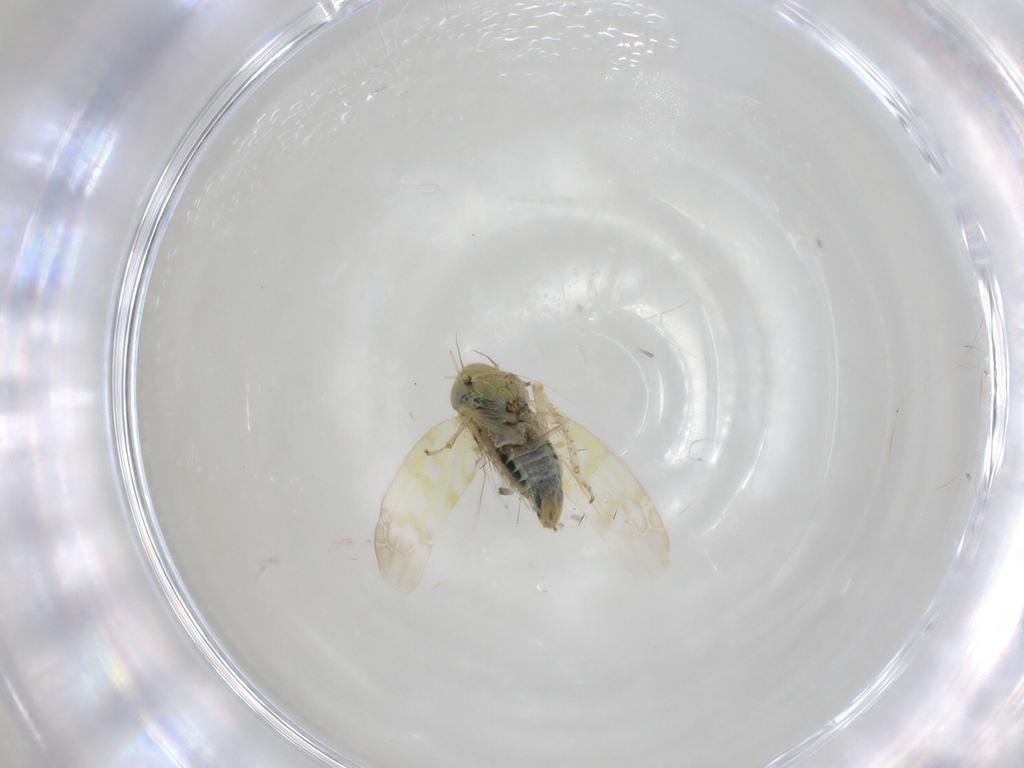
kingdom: Animalia
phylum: Arthropoda
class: Insecta
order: Hemiptera
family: Cicadellidae
